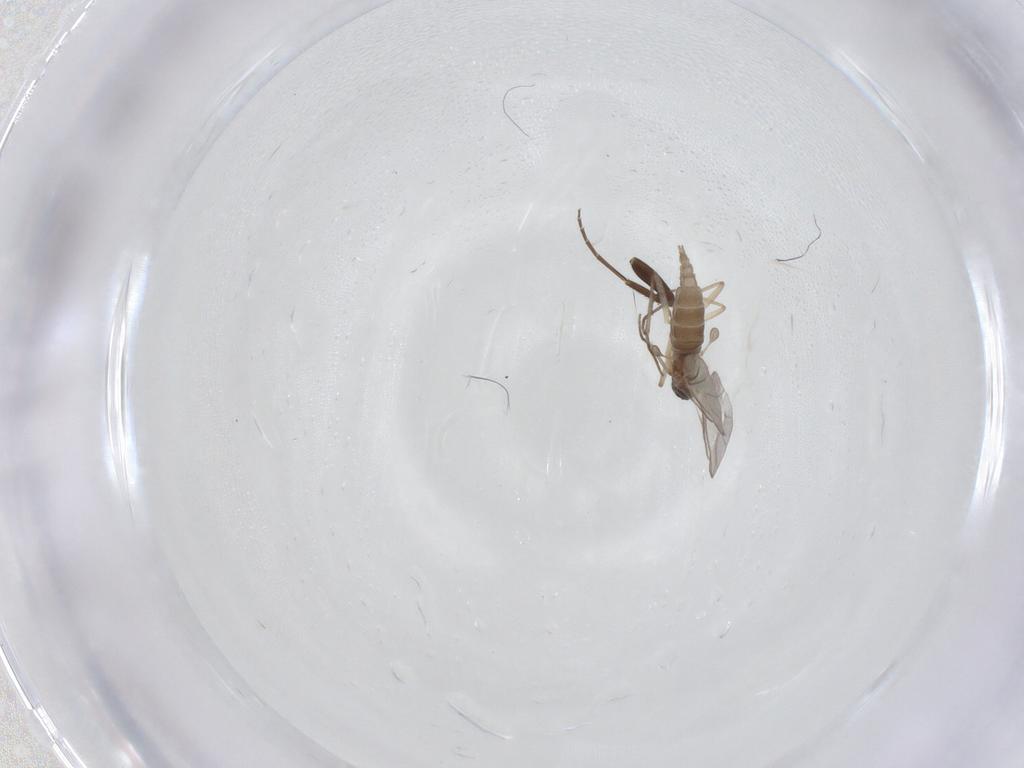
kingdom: Animalia
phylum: Arthropoda
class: Insecta
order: Diptera
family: Sciaridae
